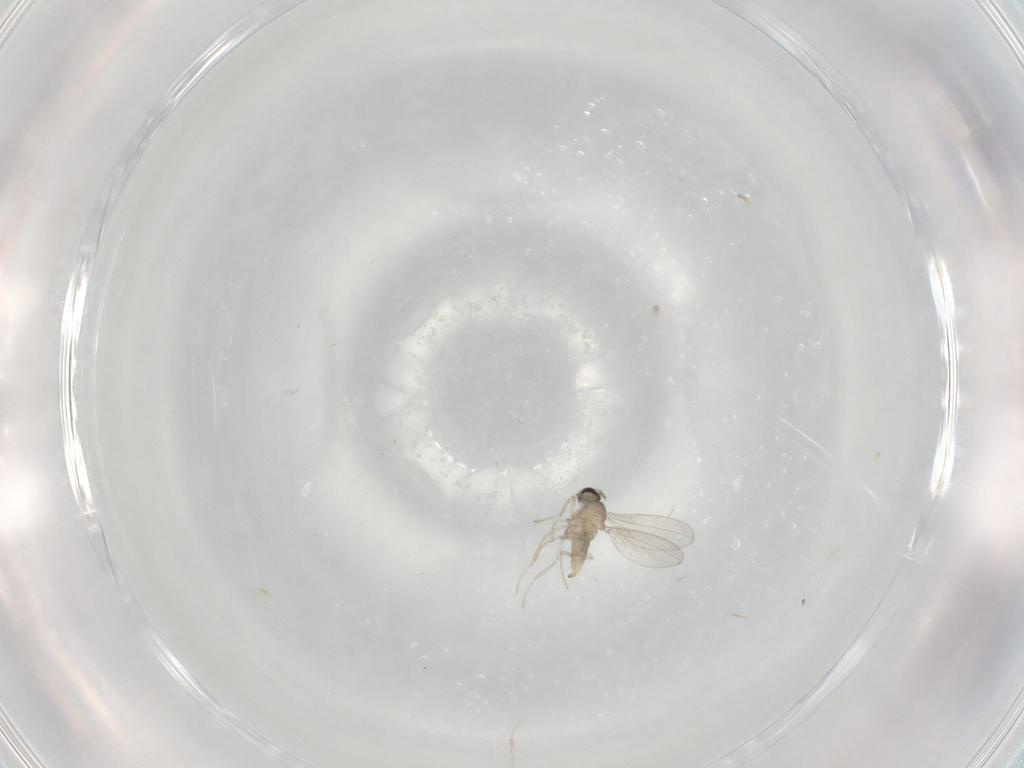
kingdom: Animalia
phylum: Arthropoda
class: Insecta
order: Diptera
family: Cecidomyiidae
